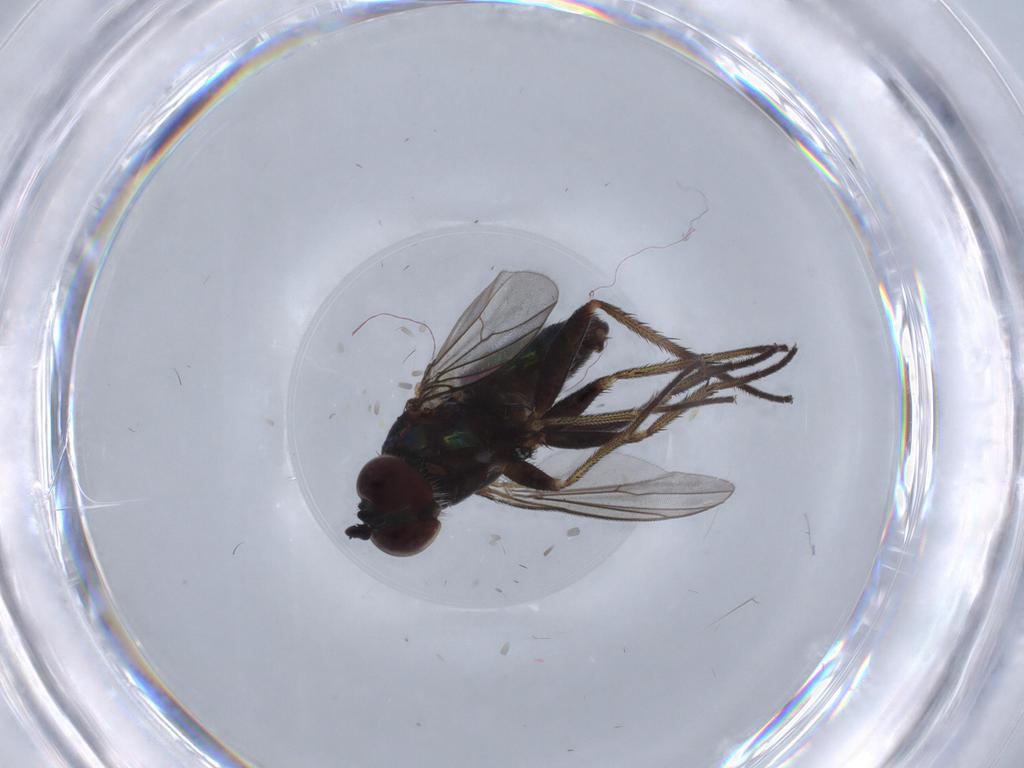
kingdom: Animalia
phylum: Arthropoda
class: Insecta
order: Diptera
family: Dolichopodidae
